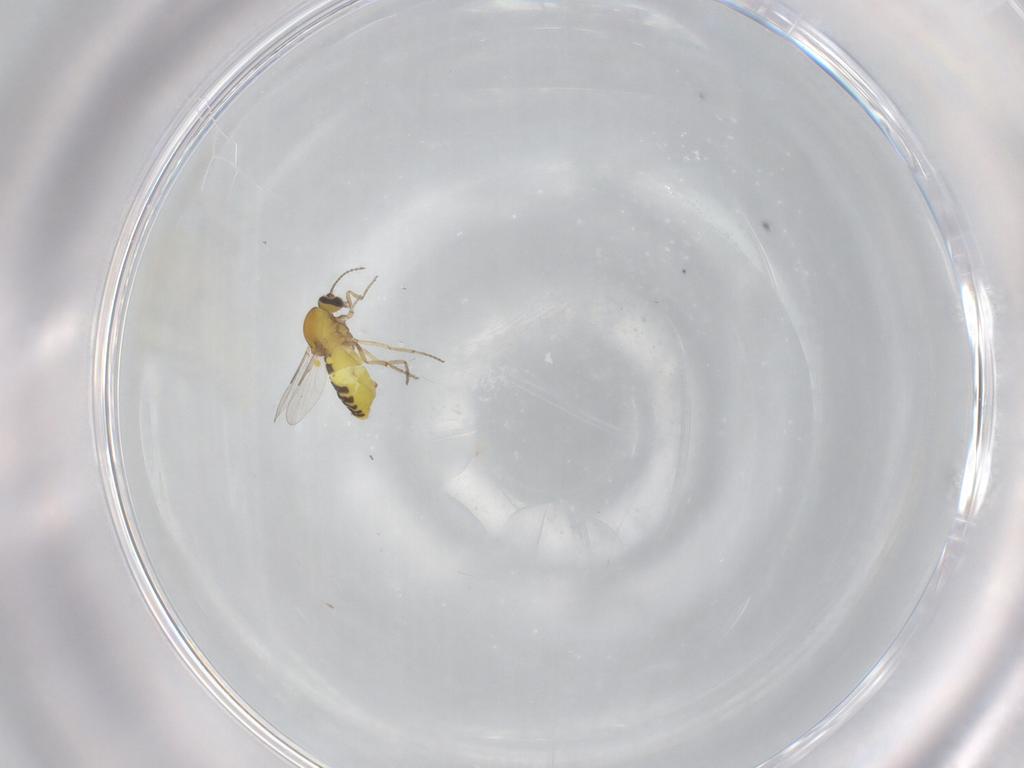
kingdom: Animalia
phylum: Arthropoda
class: Insecta
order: Diptera
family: Ceratopogonidae
